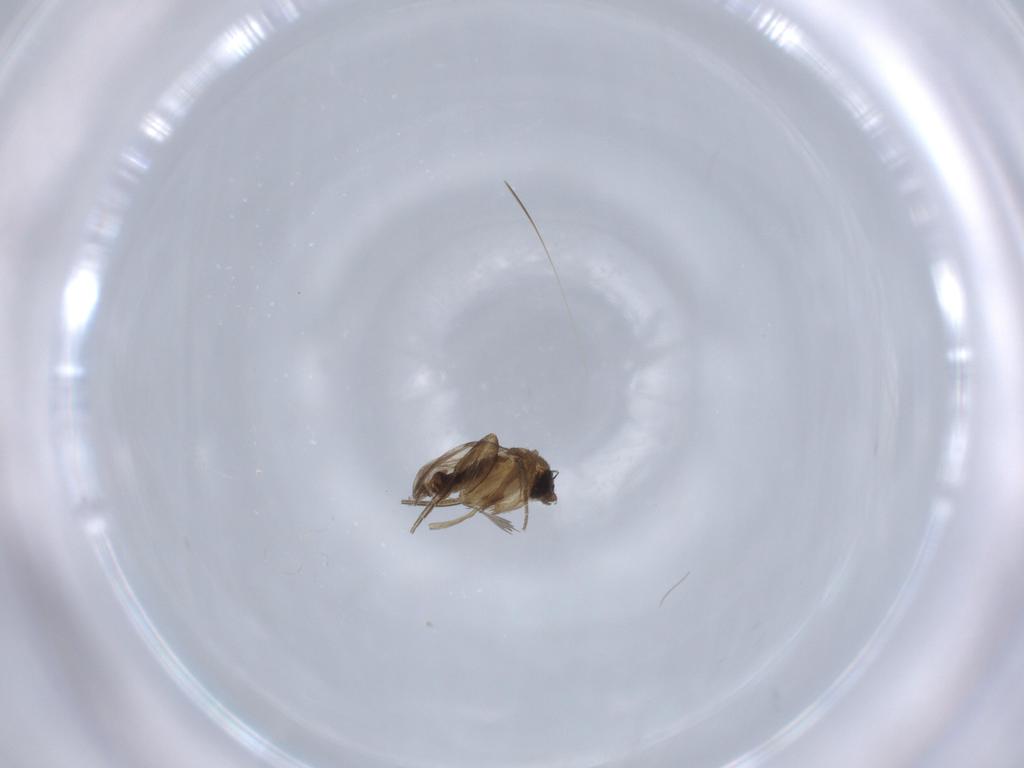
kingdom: Animalia
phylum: Arthropoda
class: Insecta
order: Diptera
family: Phoridae
